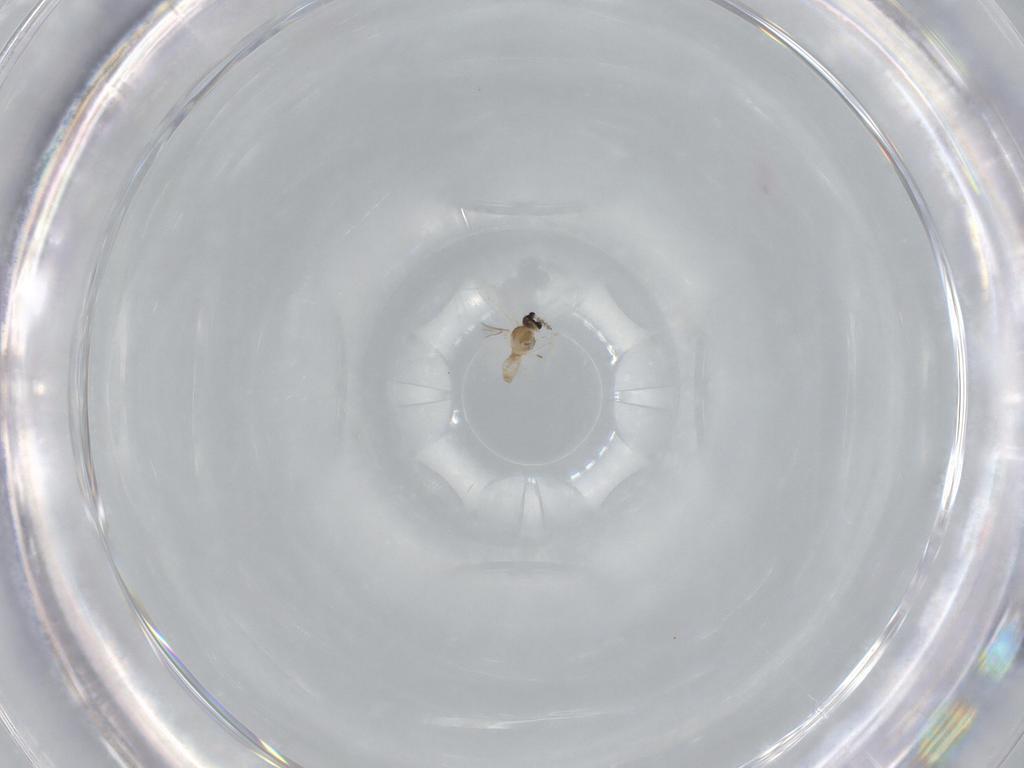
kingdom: Animalia
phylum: Arthropoda
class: Insecta
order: Diptera
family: Cecidomyiidae
